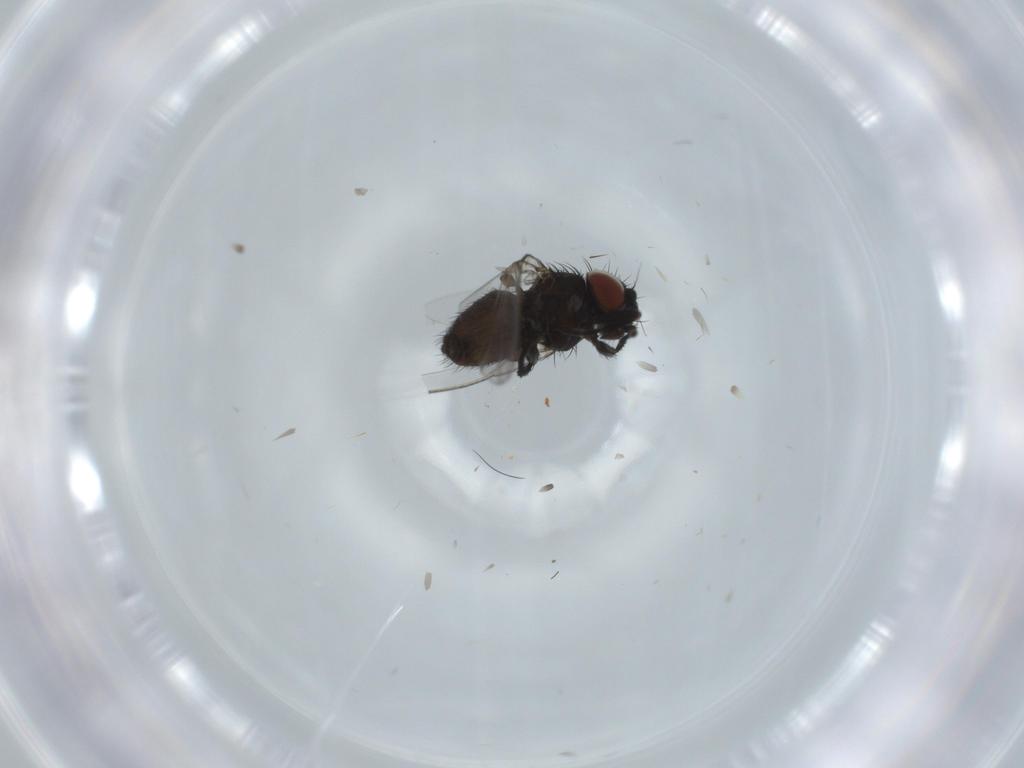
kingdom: Animalia
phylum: Arthropoda
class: Insecta
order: Diptera
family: Milichiidae
